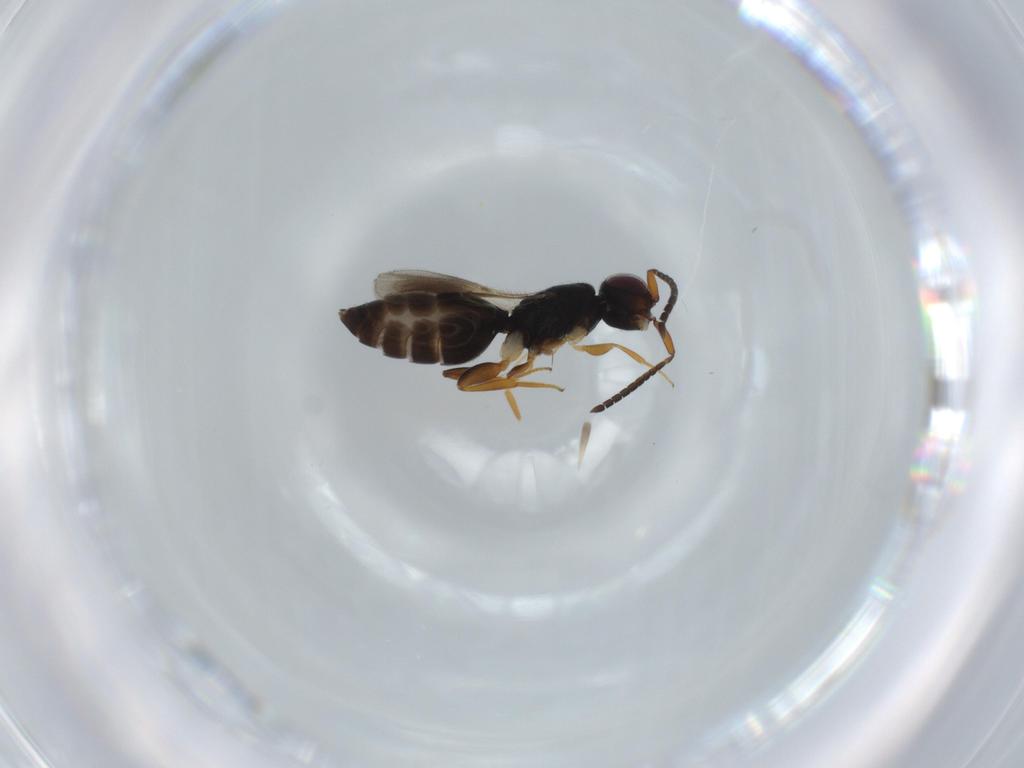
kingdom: Animalia
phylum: Arthropoda
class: Insecta
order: Hymenoptera
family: Megaspilidae
